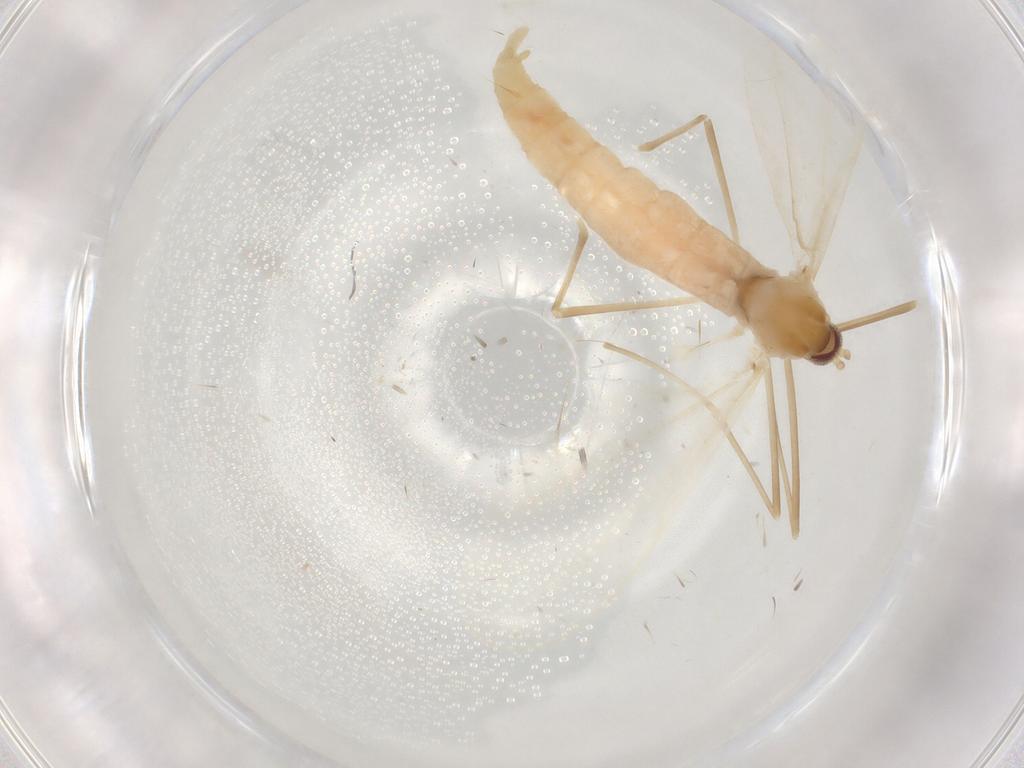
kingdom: Animalia
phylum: Arthropoda
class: Insecta
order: Diptera
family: Cecidomyiidae
